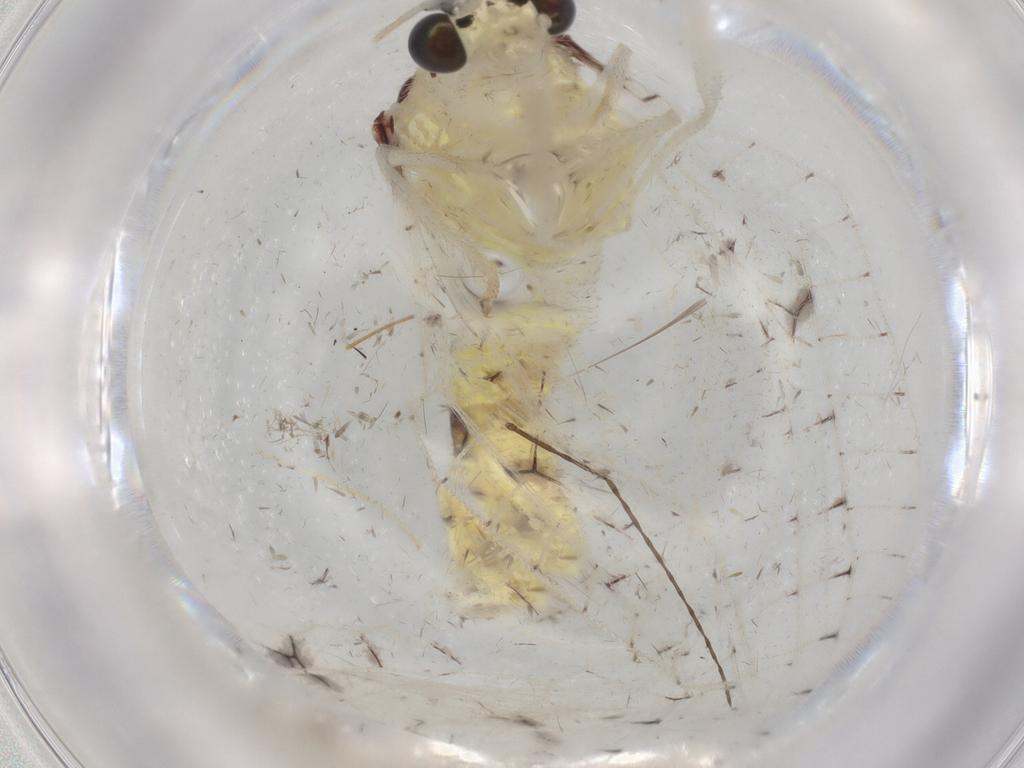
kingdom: Animalia
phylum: Arthropoda
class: Insecta
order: Neuroptera
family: Chrysopidae
